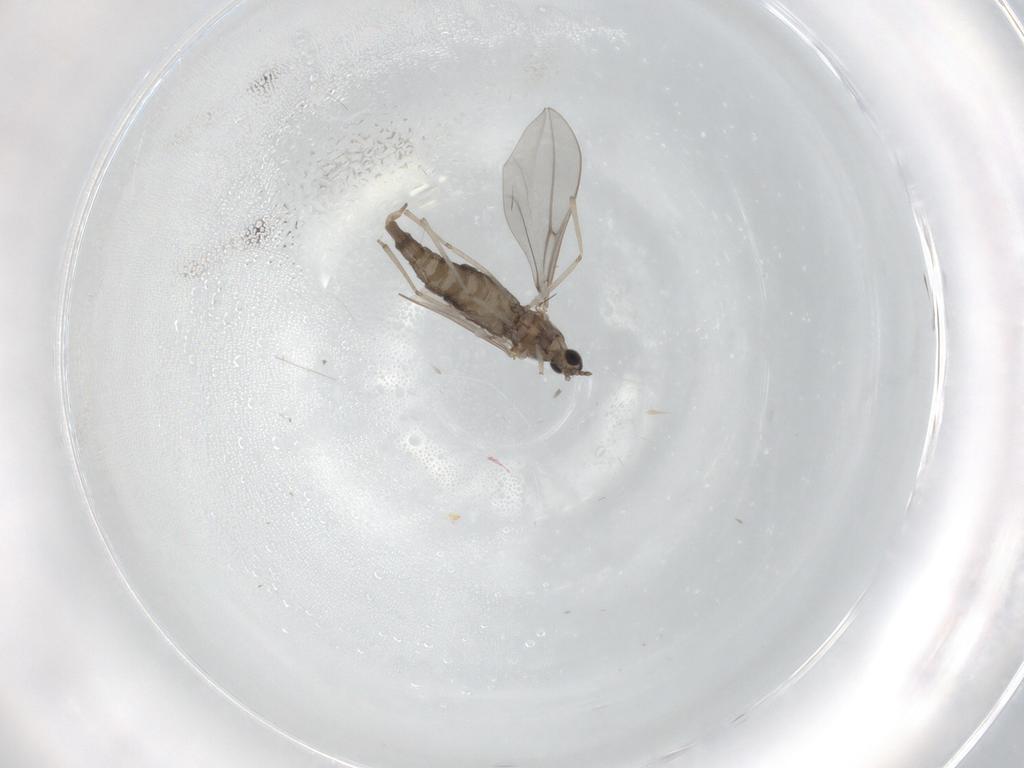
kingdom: Animalia
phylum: Arthropoda
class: Insecta
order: Diptera
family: Cecidomyiidae
